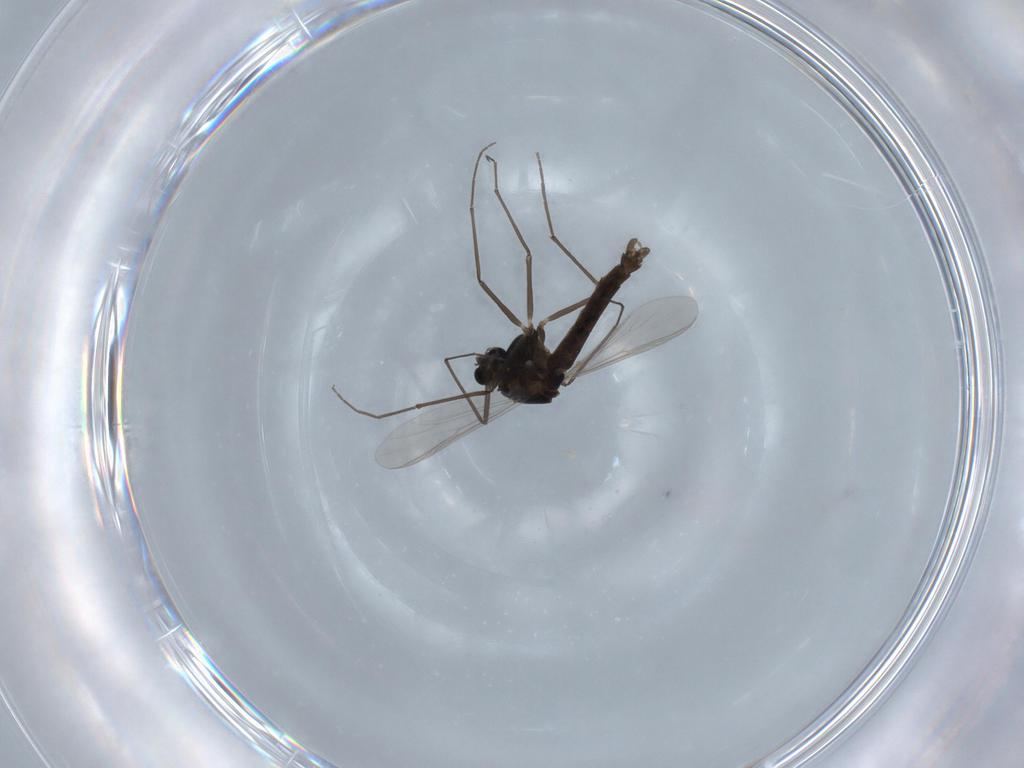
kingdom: Animalia
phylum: Arthropoda
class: Insecta
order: Diptera
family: Chironomidae
